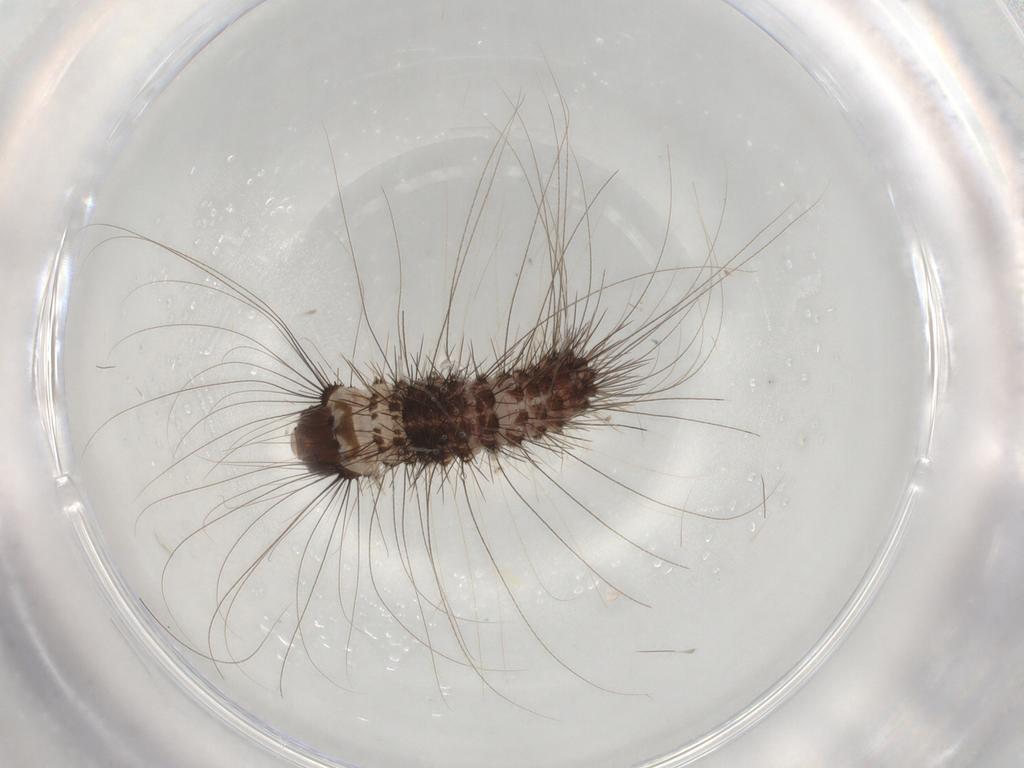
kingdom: Animalia
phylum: Arthropoda
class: Insecta
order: Lepidoptera
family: Scythrididae
